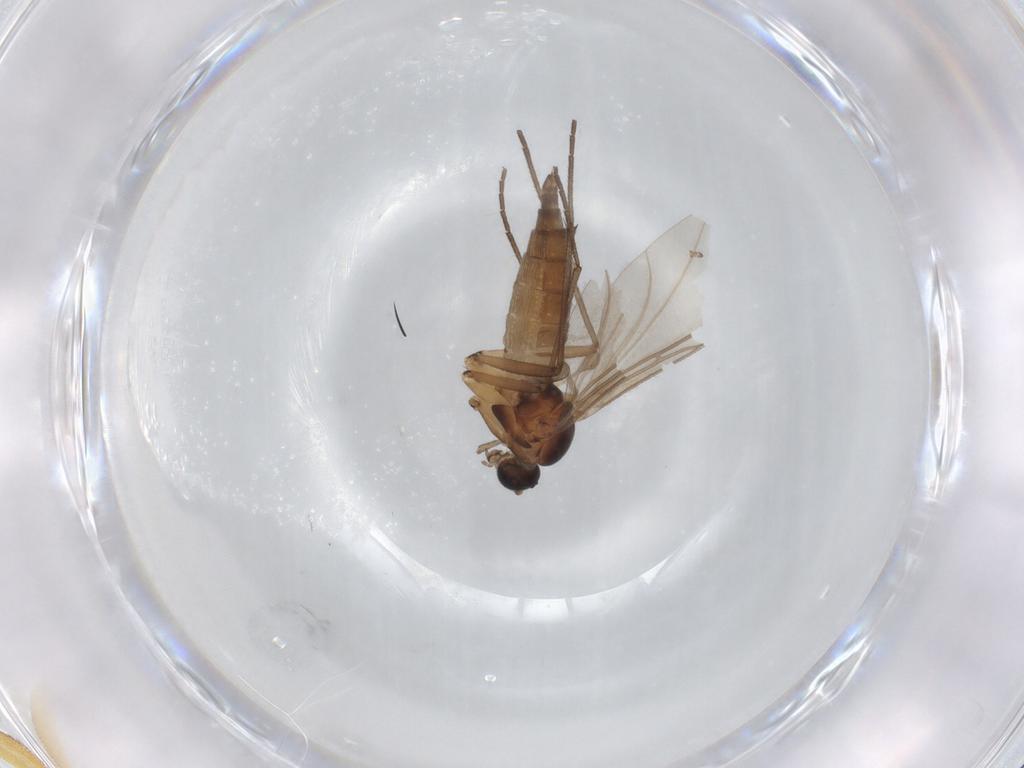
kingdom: Animalia
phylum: Arthropoda
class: Insecta
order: Diptera
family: Sciaridae
